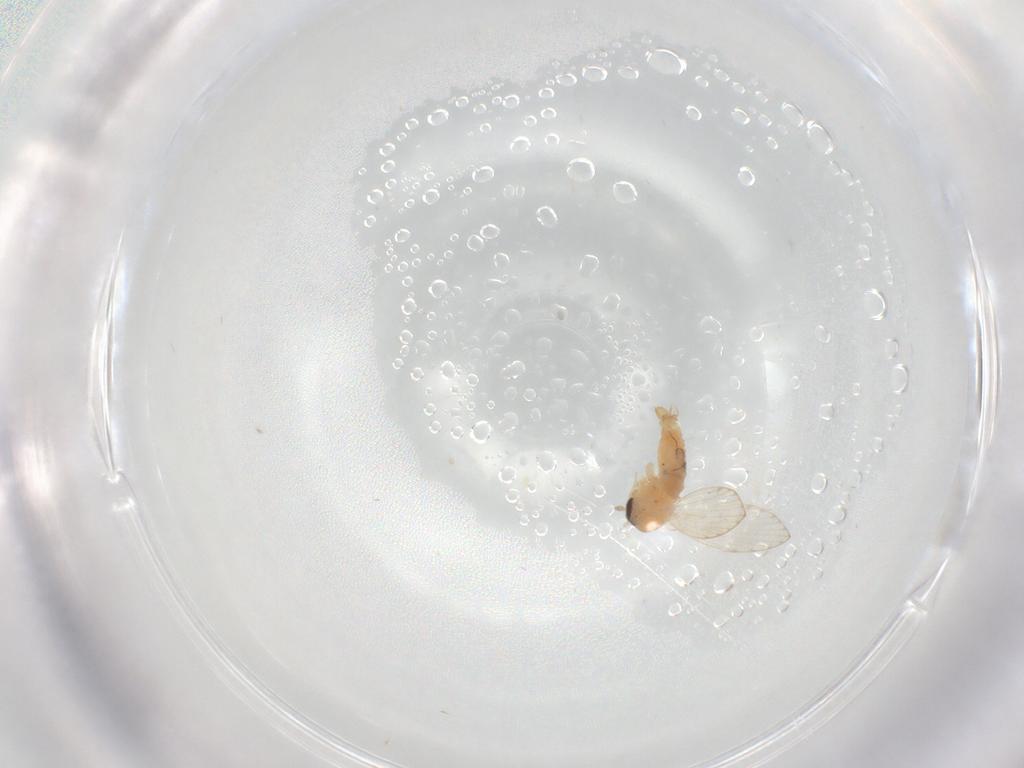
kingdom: Animalia
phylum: Arthropoda
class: Insecta
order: Diptera
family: Psychodidae
